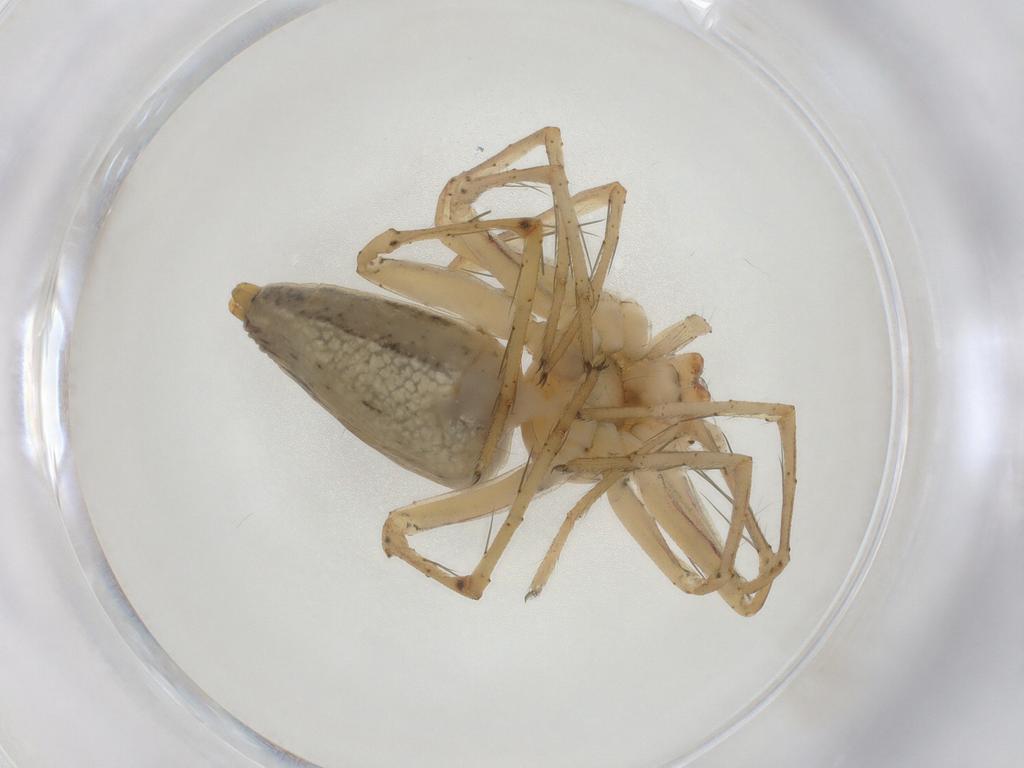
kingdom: Animalia
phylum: Arthropoda
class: Arachnida
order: Araneae
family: Oxyopidae
